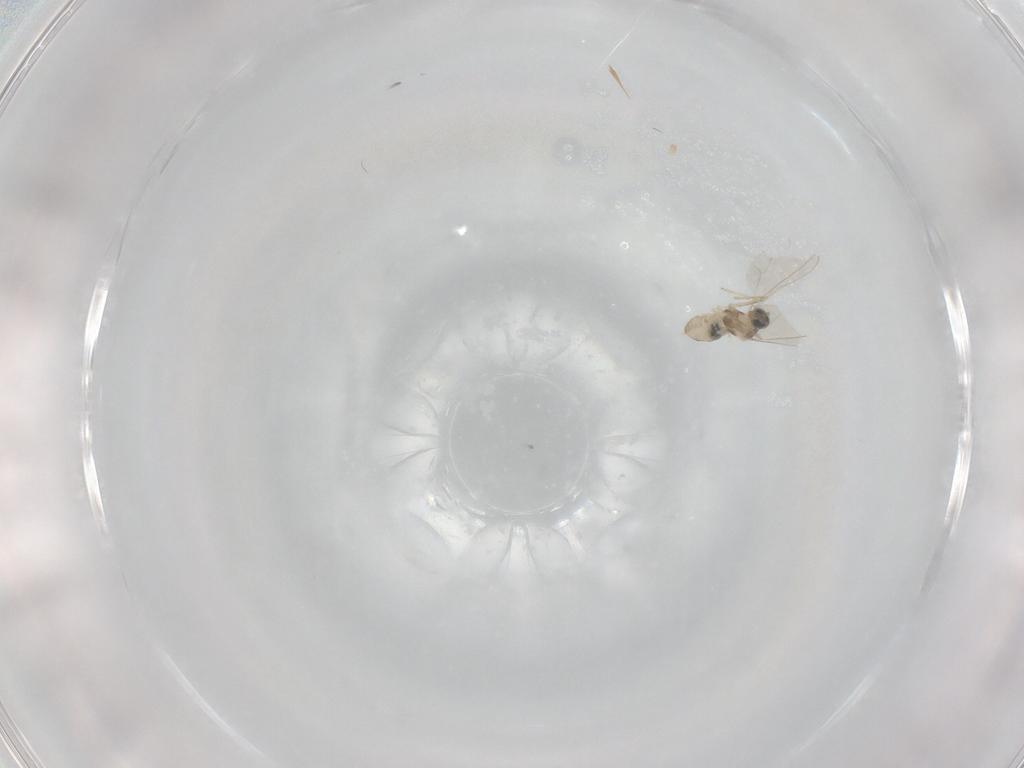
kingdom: Animalia
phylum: Arthropoda
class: Insecta
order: Diptera
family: Cecidomyiidae
